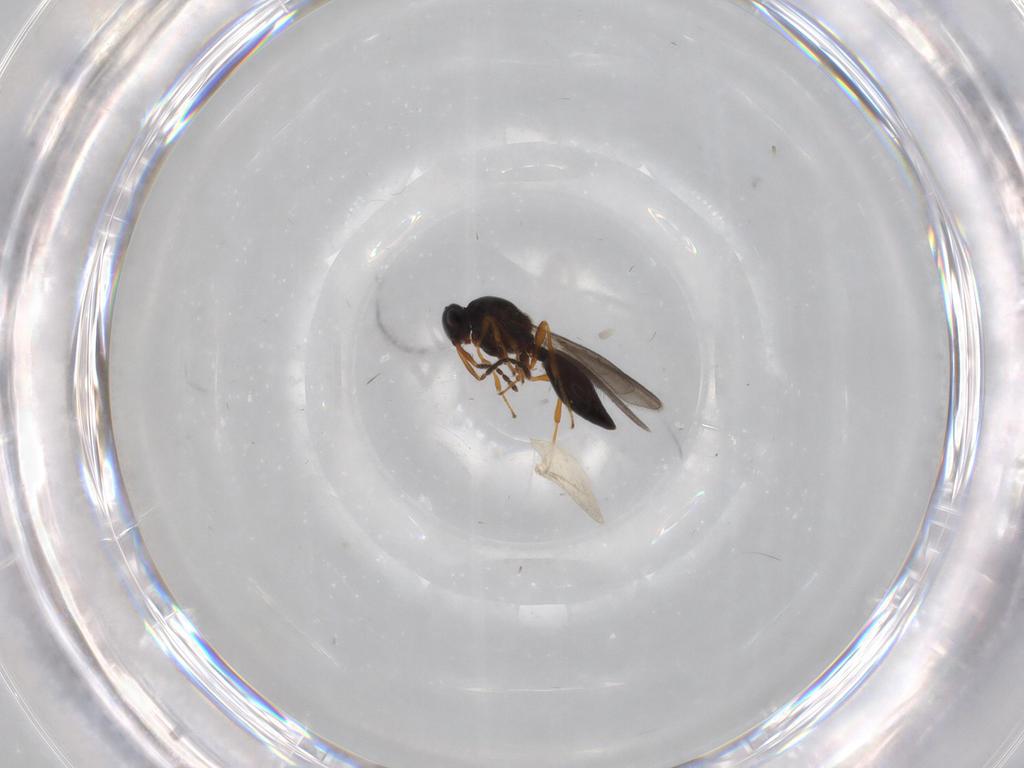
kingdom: Animalia
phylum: Arthropoda
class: Insecta
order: Hymenoptera
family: Platygastridae
